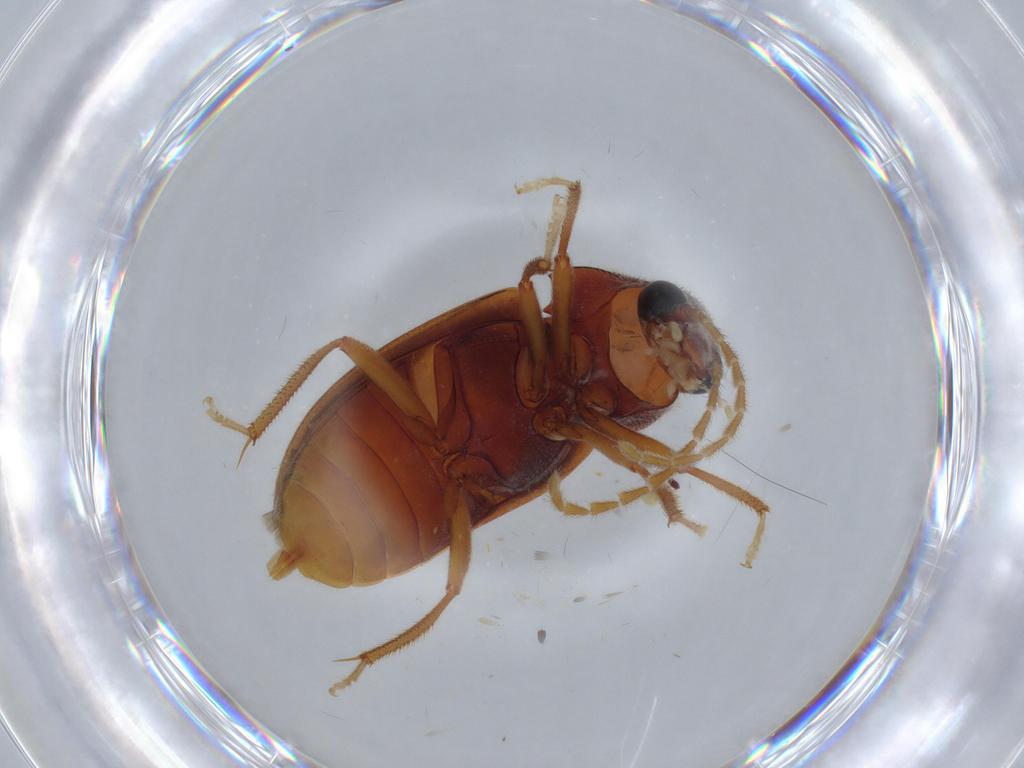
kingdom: Animalia
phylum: Arthropoda
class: Insecta
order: Coleoptera
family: Ptilodactylidae
